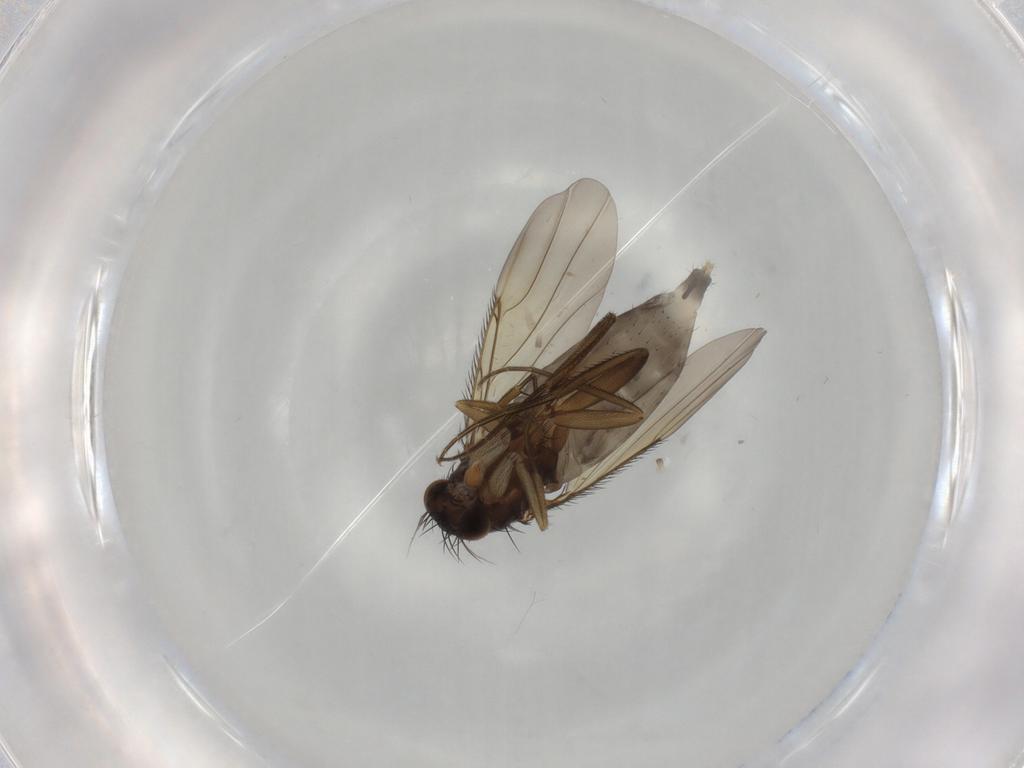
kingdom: Animalia
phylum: Arthropoda
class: Insecta
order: Diptera
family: Phoridae
